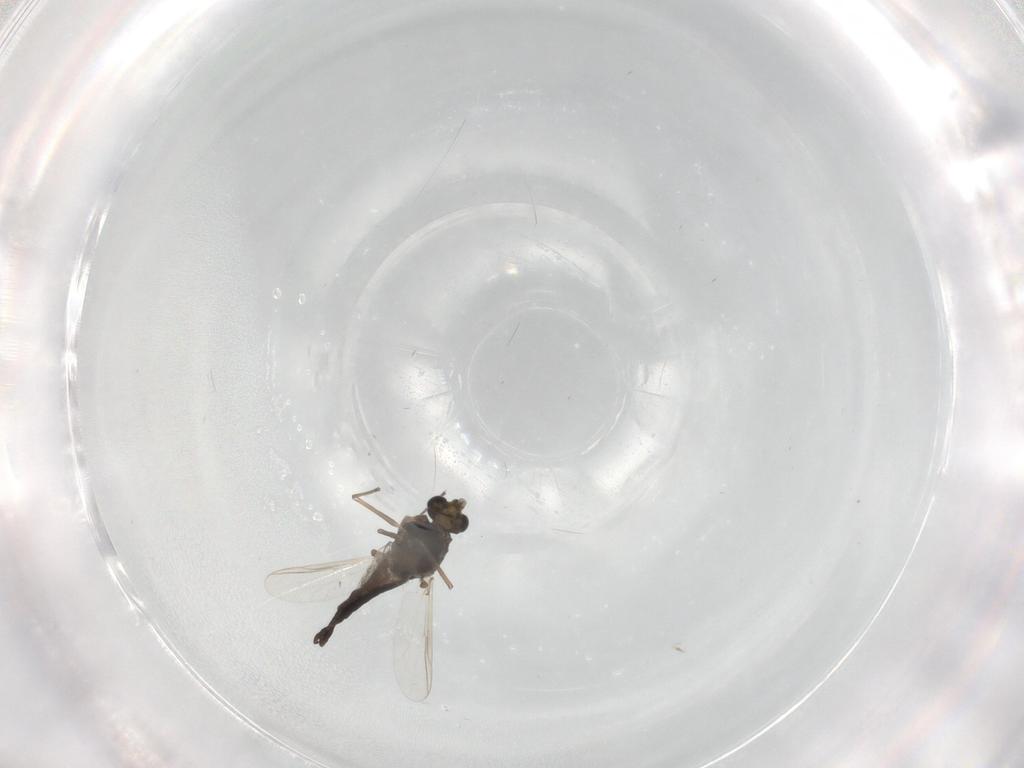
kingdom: Animalia
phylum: Arthropoda
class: Insecta
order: Diptera
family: Chironomidae
